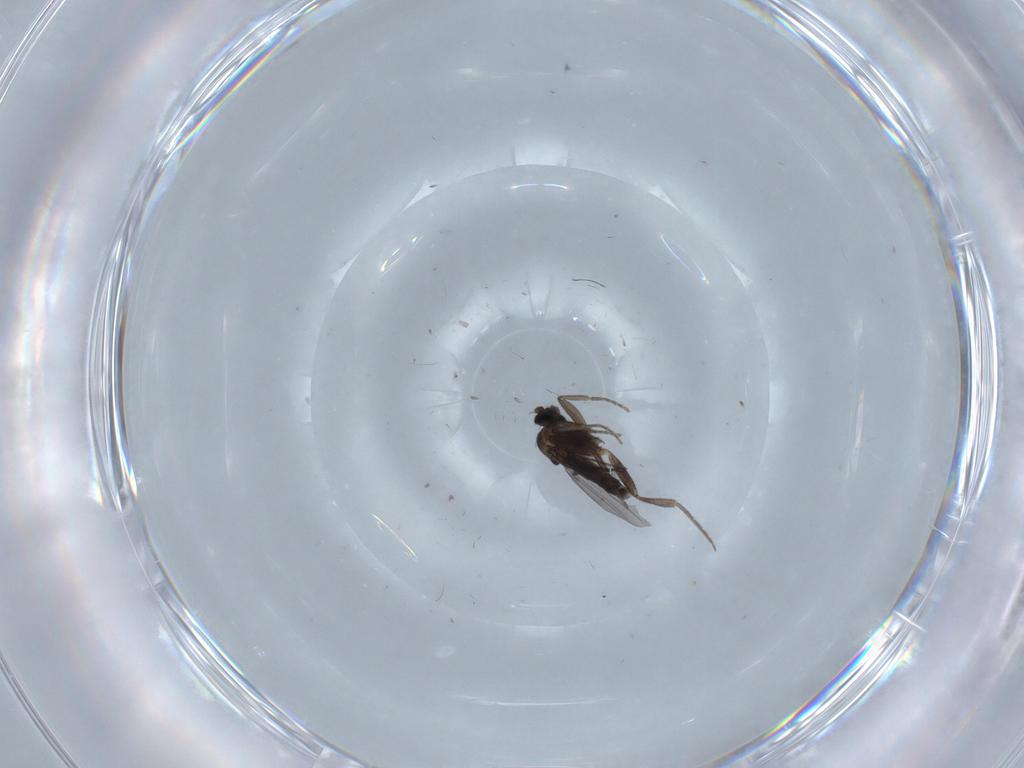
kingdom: Animalia
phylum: Arthropoda
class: Insecta
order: Diptera
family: Phoridae
